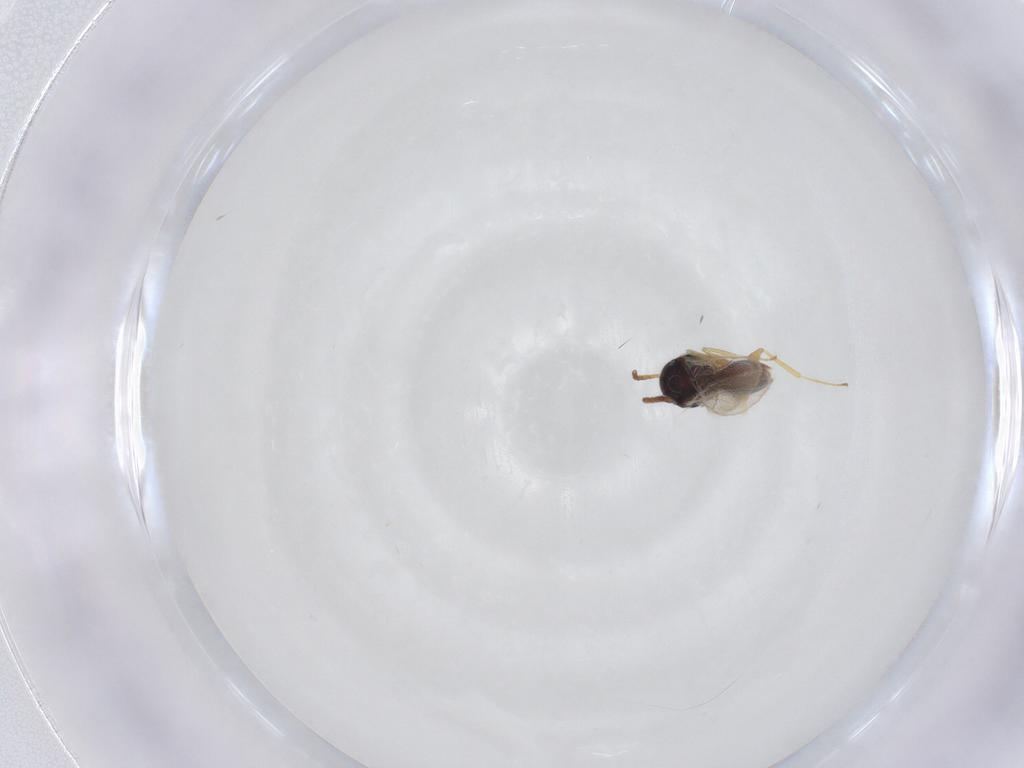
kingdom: Animalia
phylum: Arthropoda
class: Insecta
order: Hymenoptera
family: Figitidae
